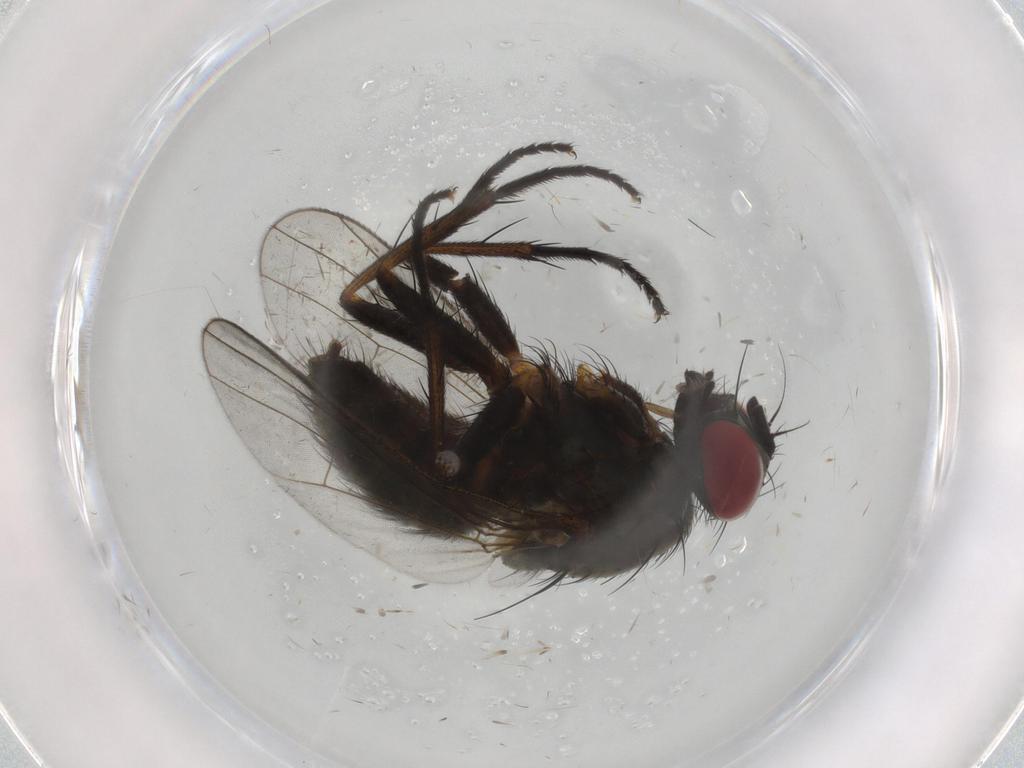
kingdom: Animalia
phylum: Arthropoda
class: Insecta
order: Diptera
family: Chironomidae
